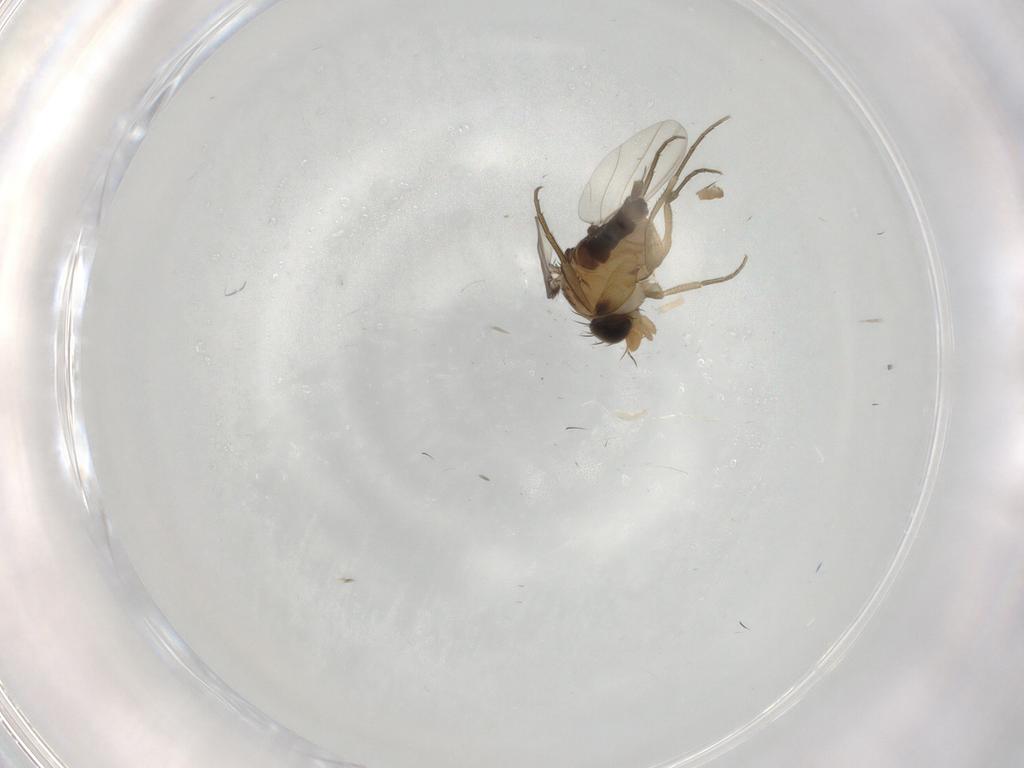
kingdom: Animalia
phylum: Arthropoda
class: Insecta
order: Diptera
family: Phoridae
